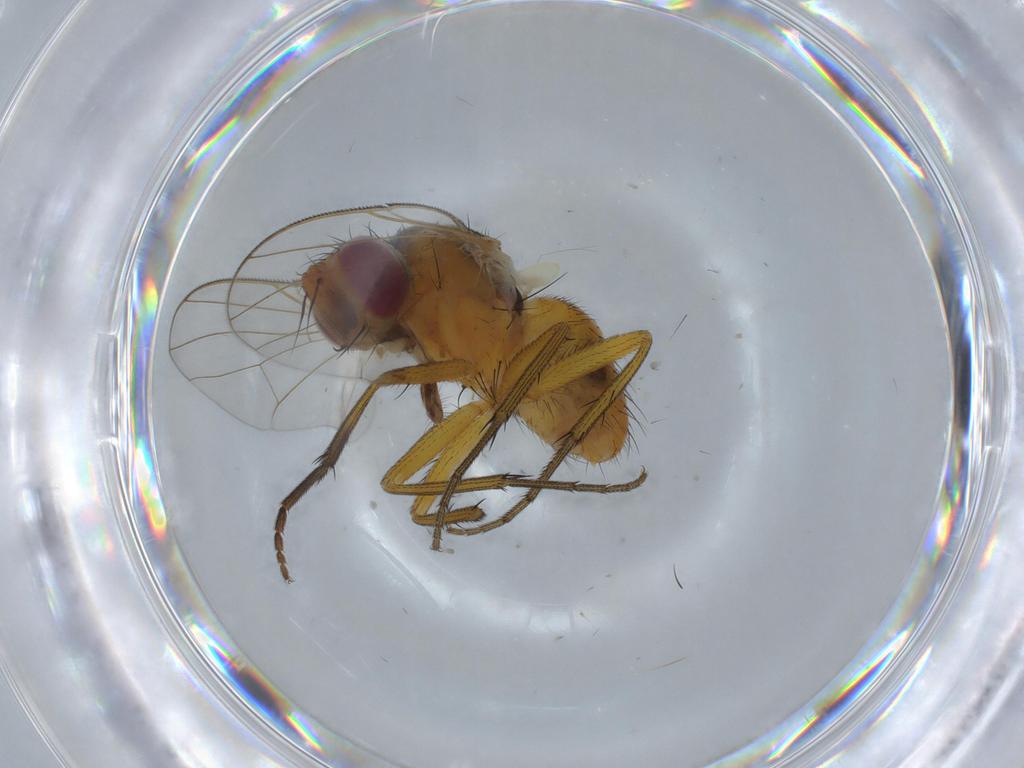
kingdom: Animalia
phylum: Arthropoda
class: Insecta
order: Diptera
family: Muscidae
